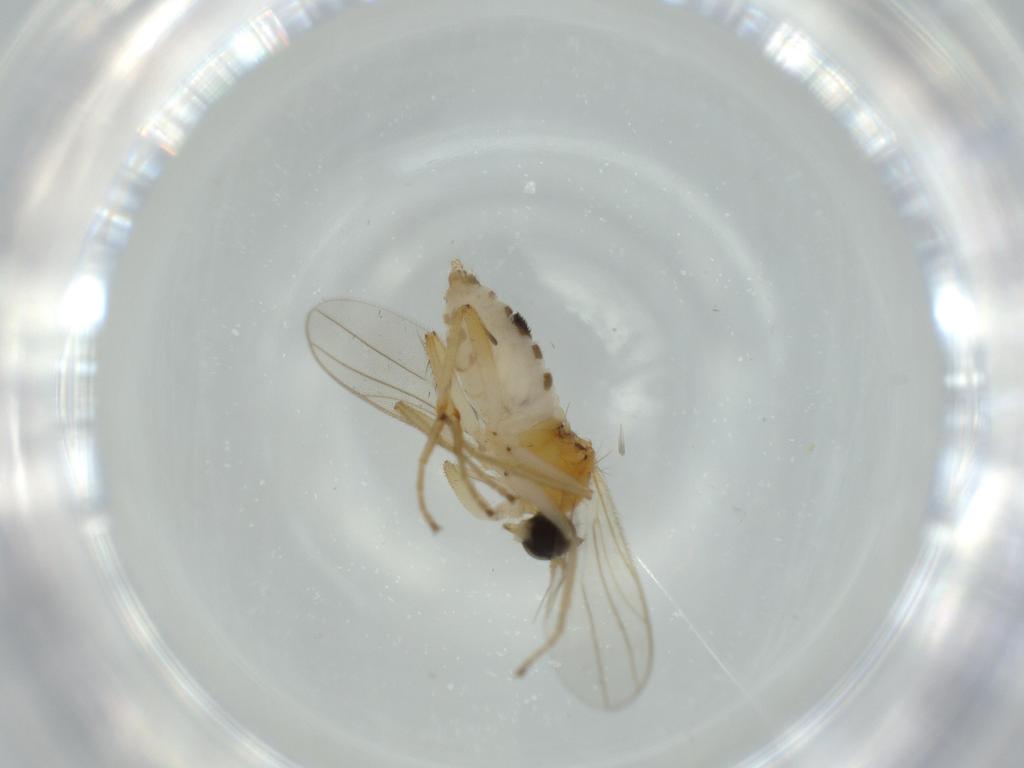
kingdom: Animalia
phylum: Arthropoda
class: Insecta
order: Diptera
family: Hybotidae
